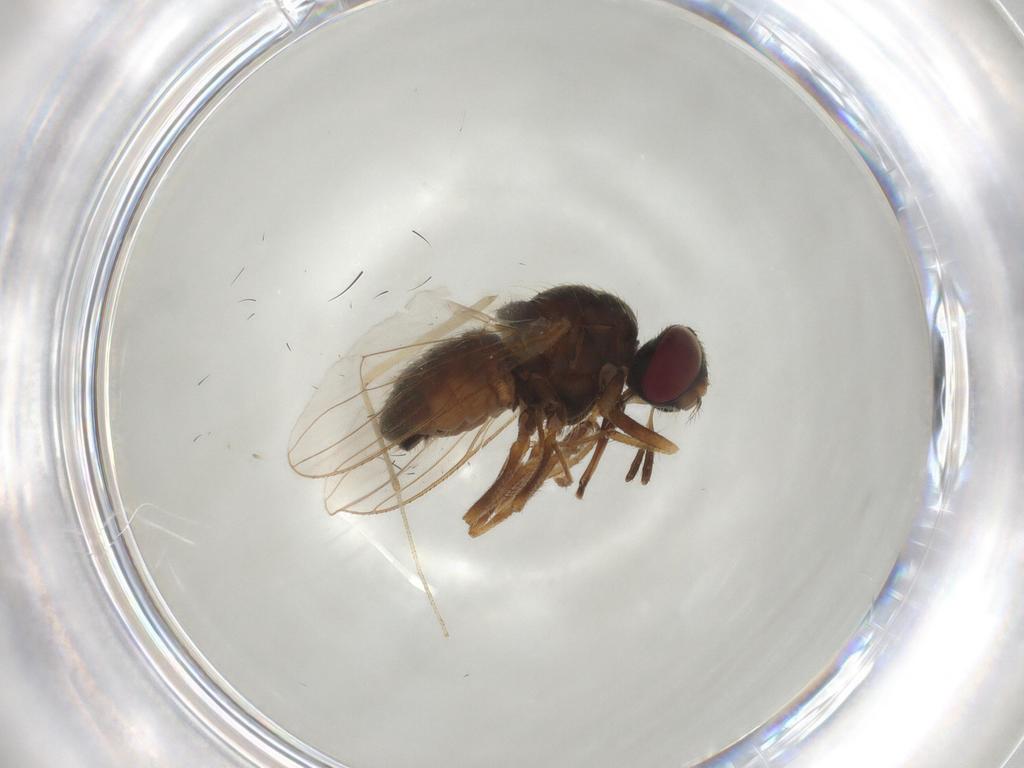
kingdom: Animalia
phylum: Arthropoda
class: Insecta
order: Diptera
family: Culicidae
